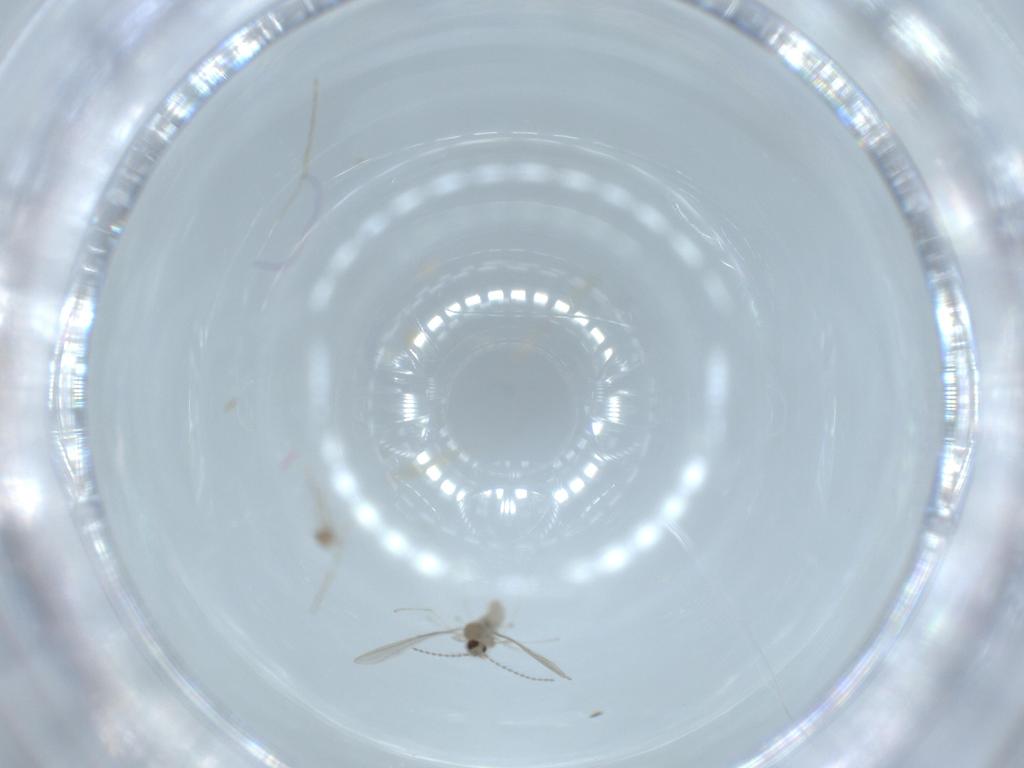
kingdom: Animalia
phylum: Arthropoda
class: Insecta
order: Diptera
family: Cecidomyiidae
